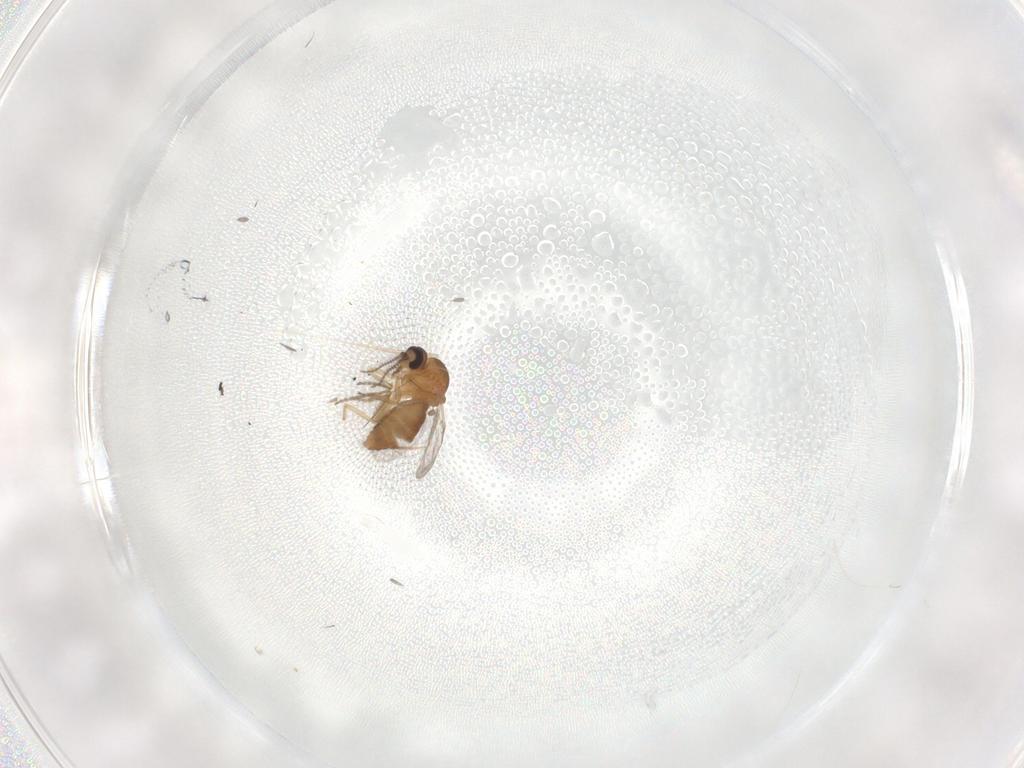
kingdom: Animalia
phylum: Arthropoda
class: Insecta
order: Diptera
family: Ceratopogonidae
